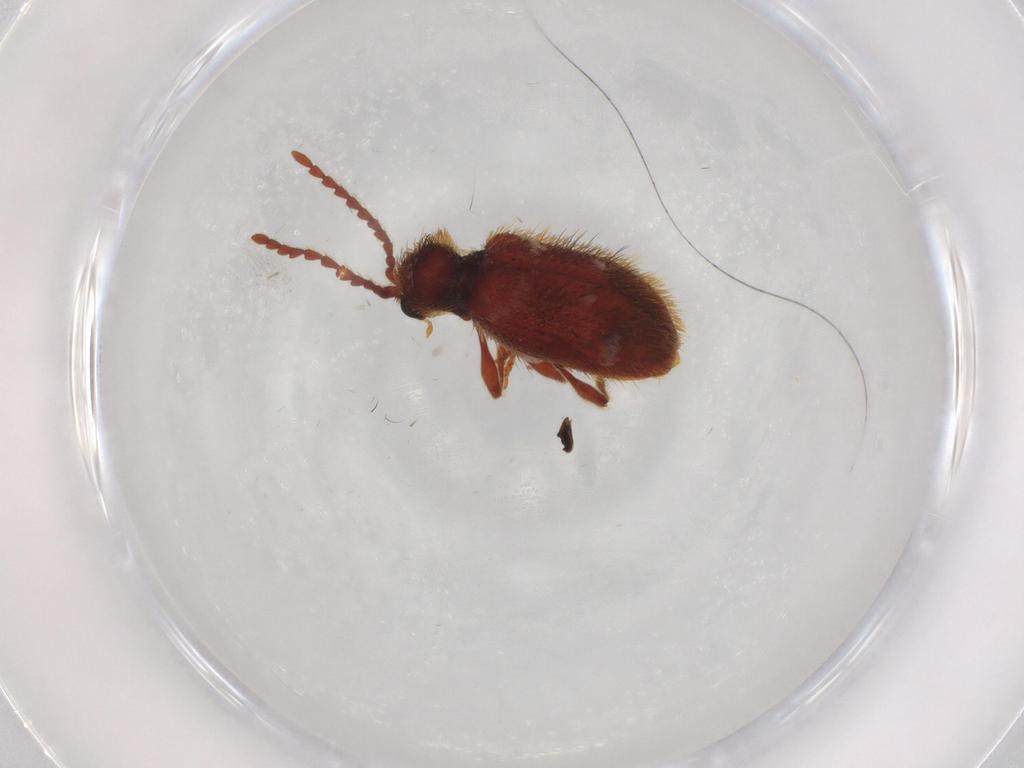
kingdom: Animalia
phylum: Arthropoda
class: Insecta
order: Coleoptera
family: Ptinidae
